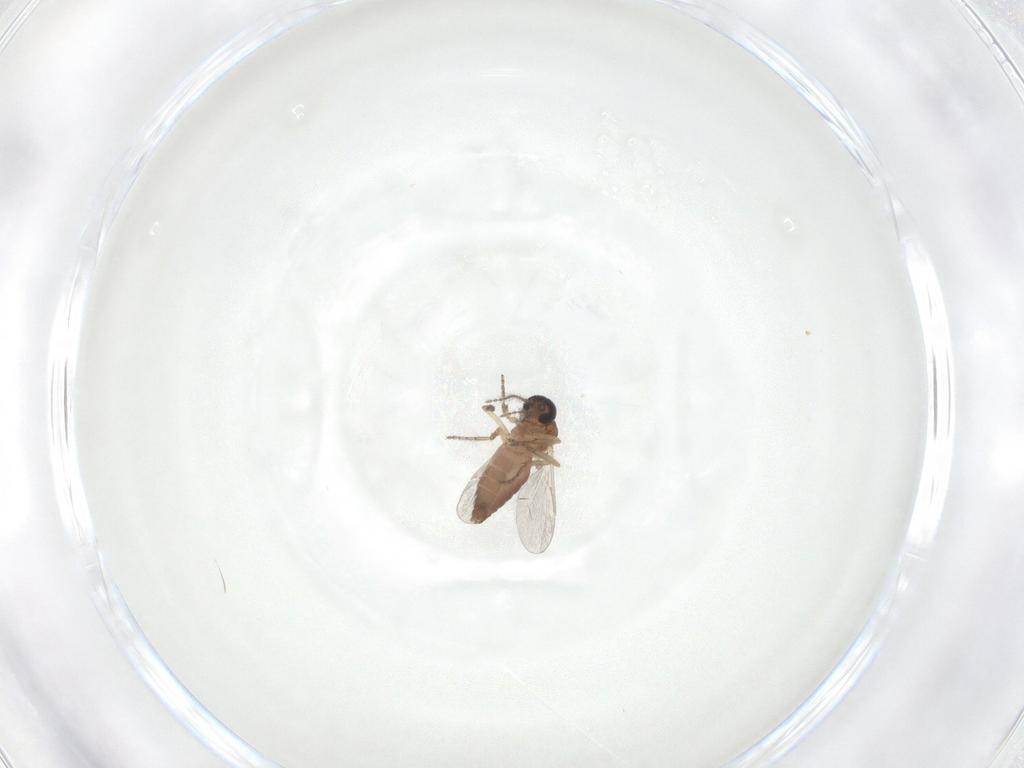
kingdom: Animalia
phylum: Arthropoda
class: Insecta
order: Diptera
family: Ceratopogonidae
